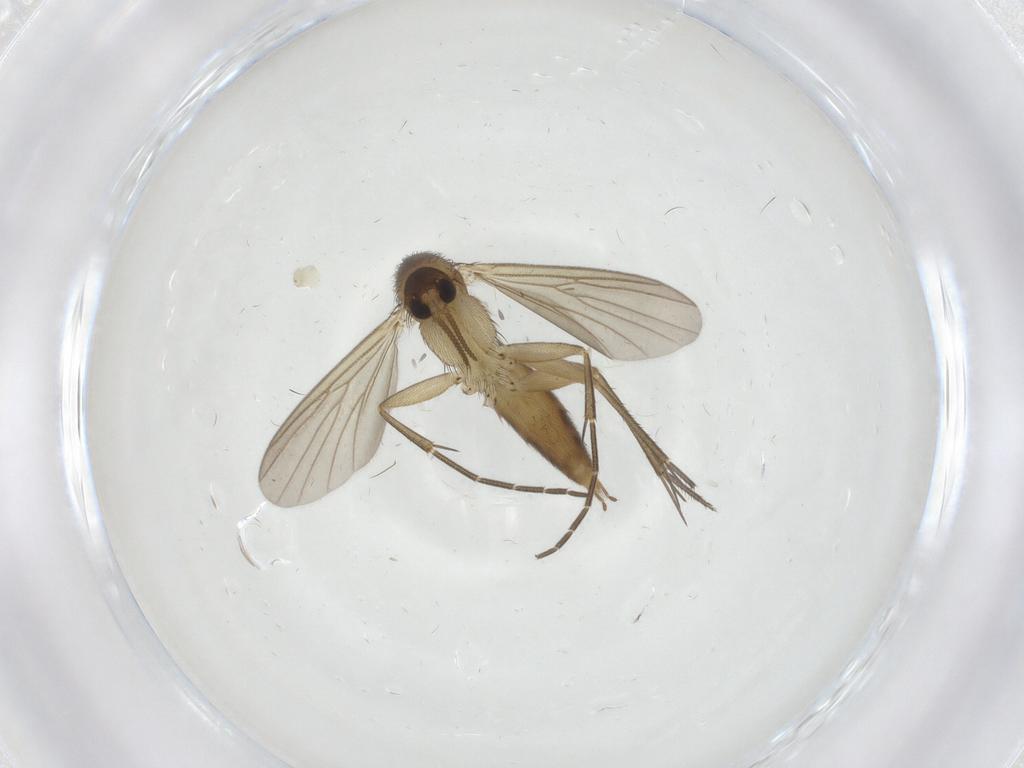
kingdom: Animalia
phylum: Arthropoda
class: Insecta
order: Diptera
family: Mycetophilidae
